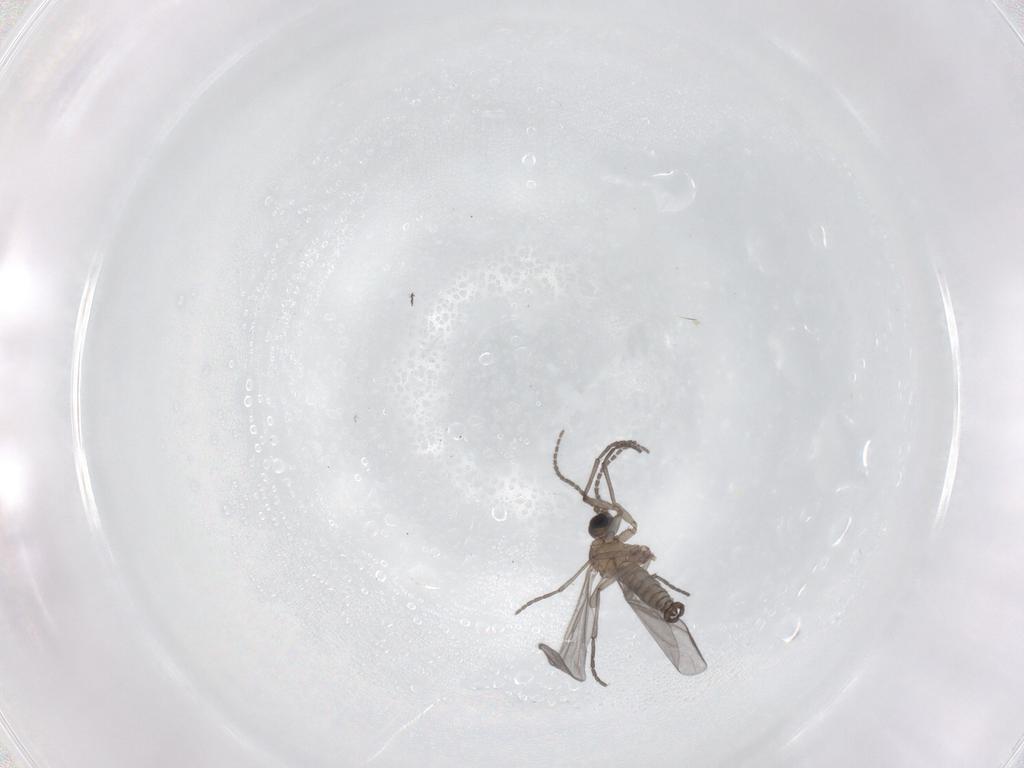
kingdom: Animalia
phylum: Arthropoda
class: Insecta
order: Diptera
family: Sciaridae
